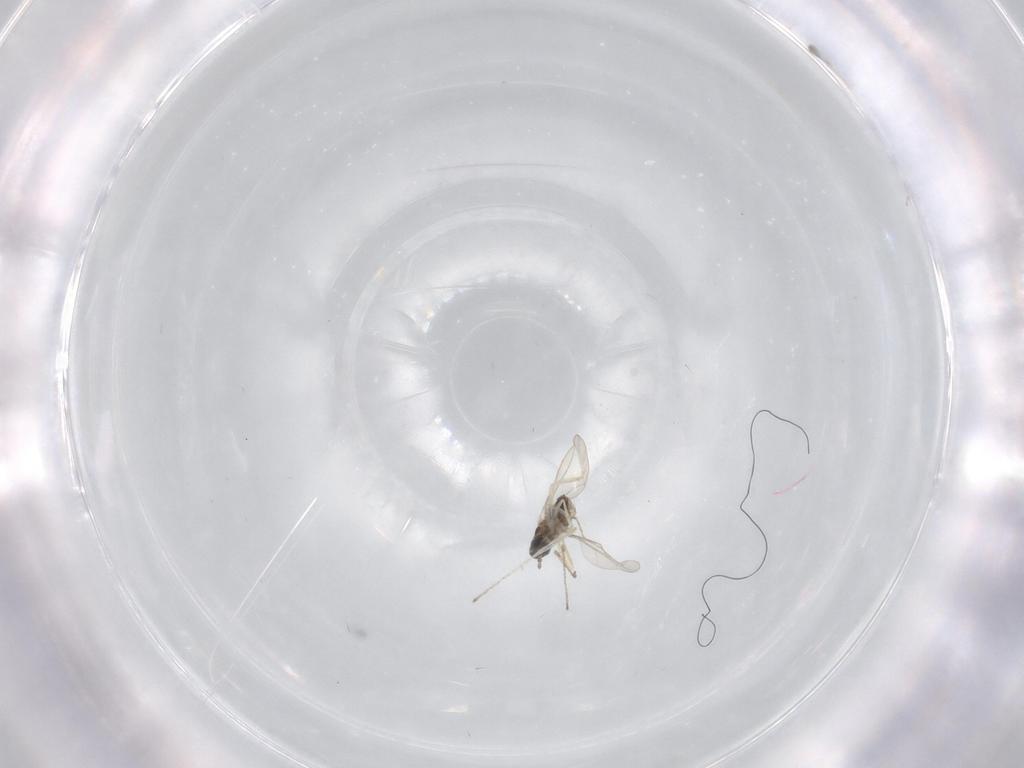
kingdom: Animalia
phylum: Arthropoda
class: Insecta
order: Diptera
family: Cecidomyiidae
